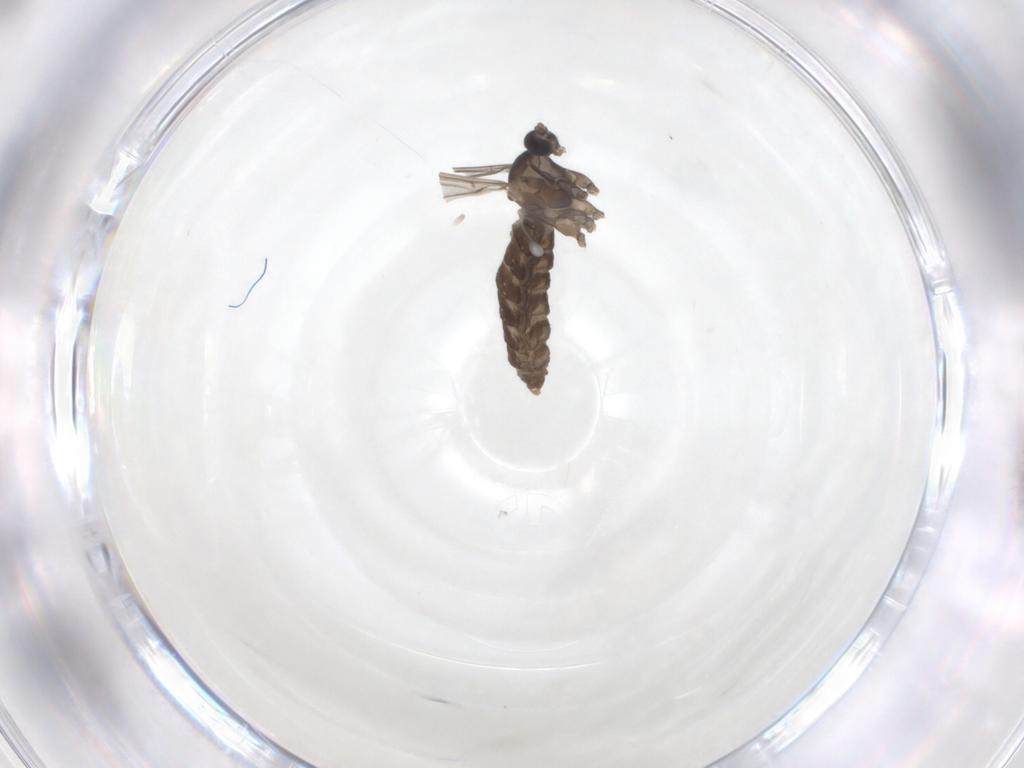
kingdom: Animalia
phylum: Arthropoda
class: Insecta
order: Diptera
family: Cecidomyiidae
